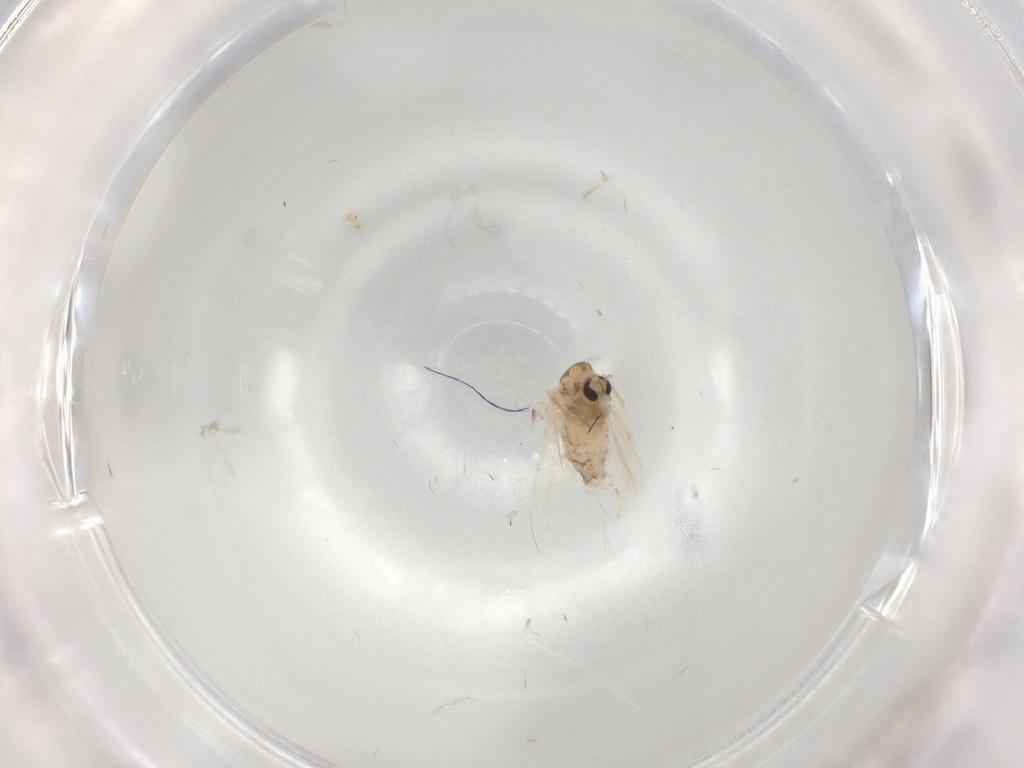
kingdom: Animalia
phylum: Arthropoda
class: Insecta
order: Diptera
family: Chironomidae
